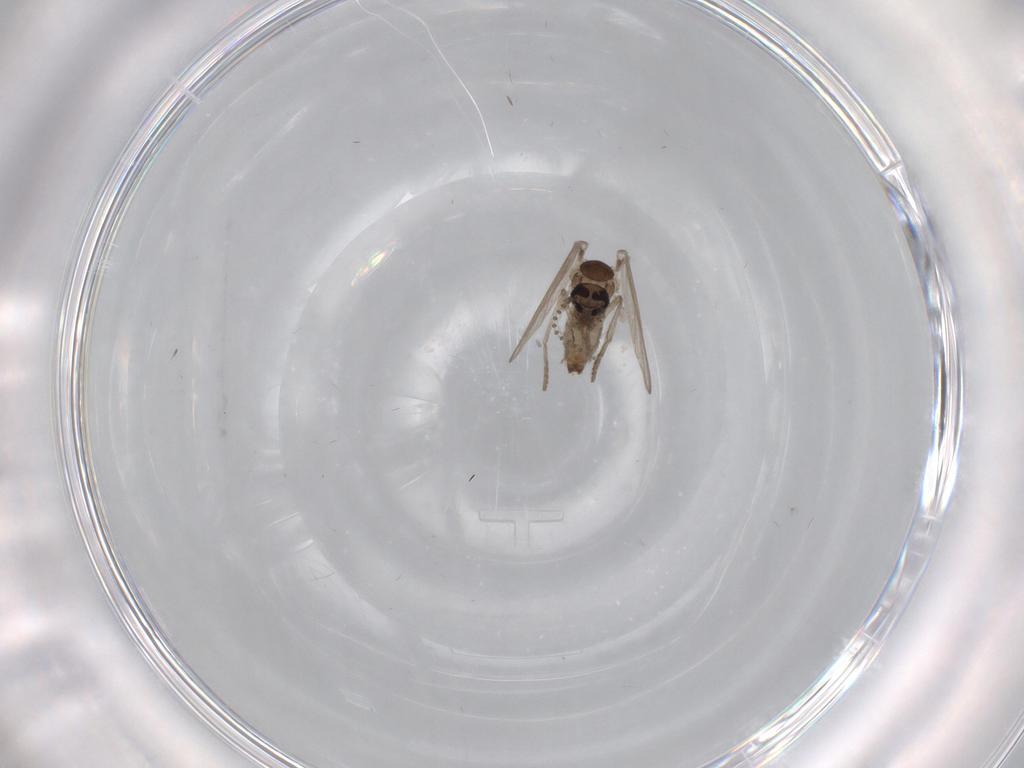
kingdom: Animalia
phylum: Arthropoda
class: Insecta
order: Diptera
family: Psychodidae
